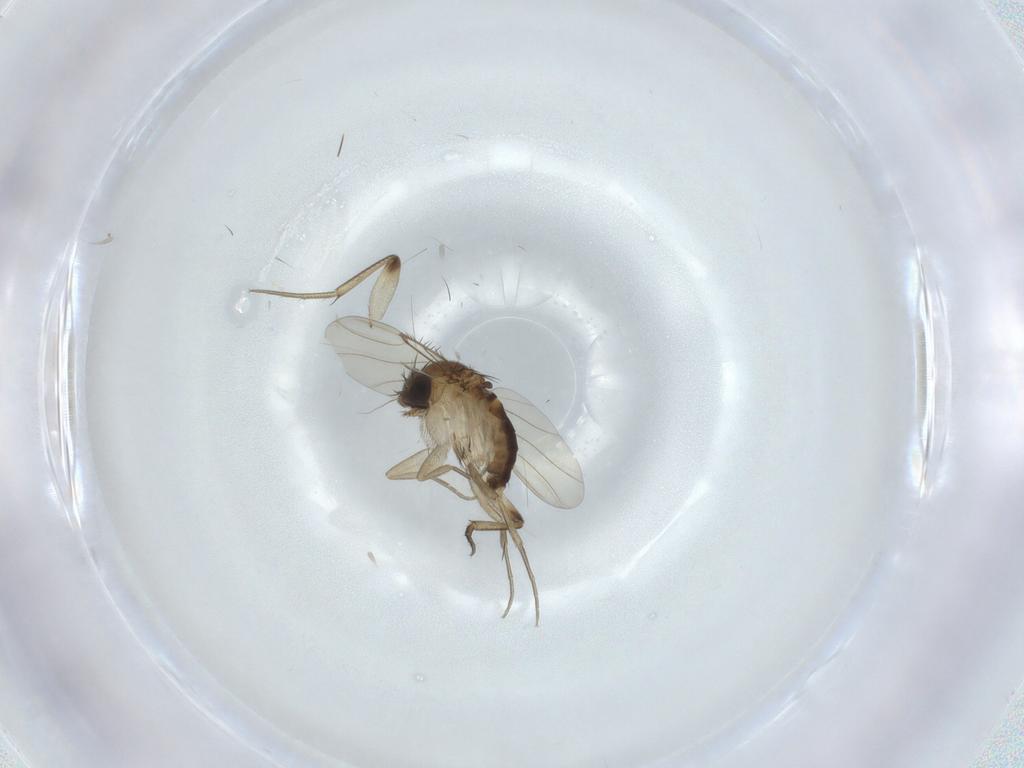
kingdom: Animalia
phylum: Arthropoda
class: Insecta
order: Diptera
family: Phoridae
